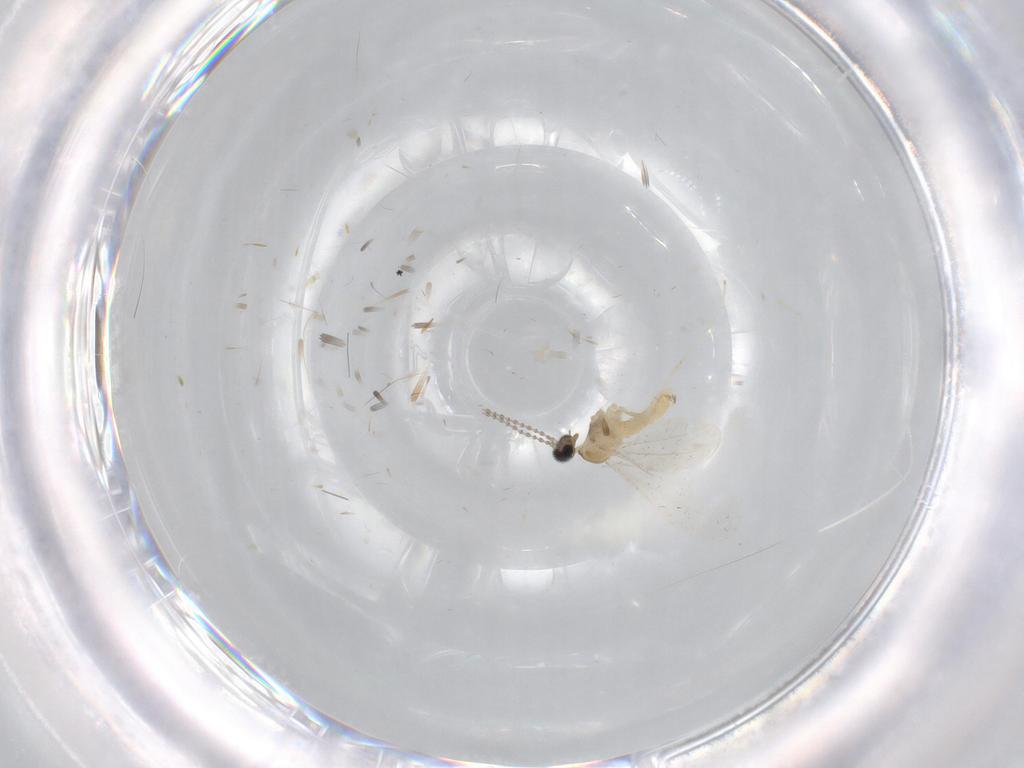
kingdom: Animalia
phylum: Arthropoda
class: Insecta
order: Diptera
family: Cecidomyiidae
